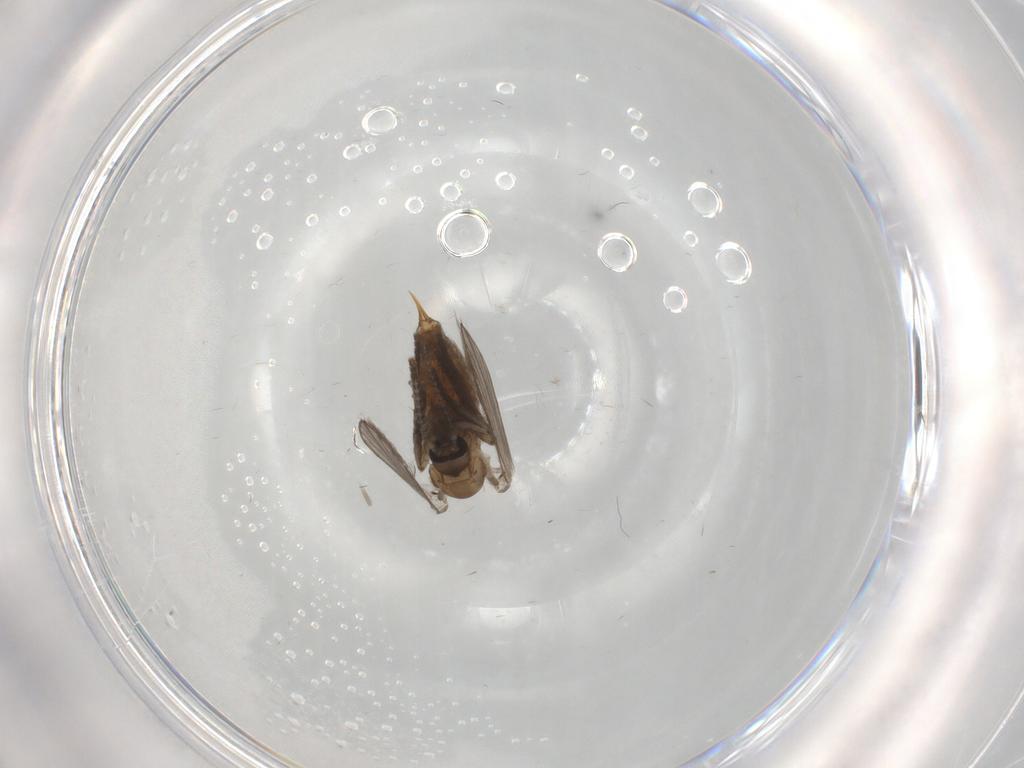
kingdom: Animalia
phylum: Arthropoda
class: Insecta
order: Diptera
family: Psychodidae
